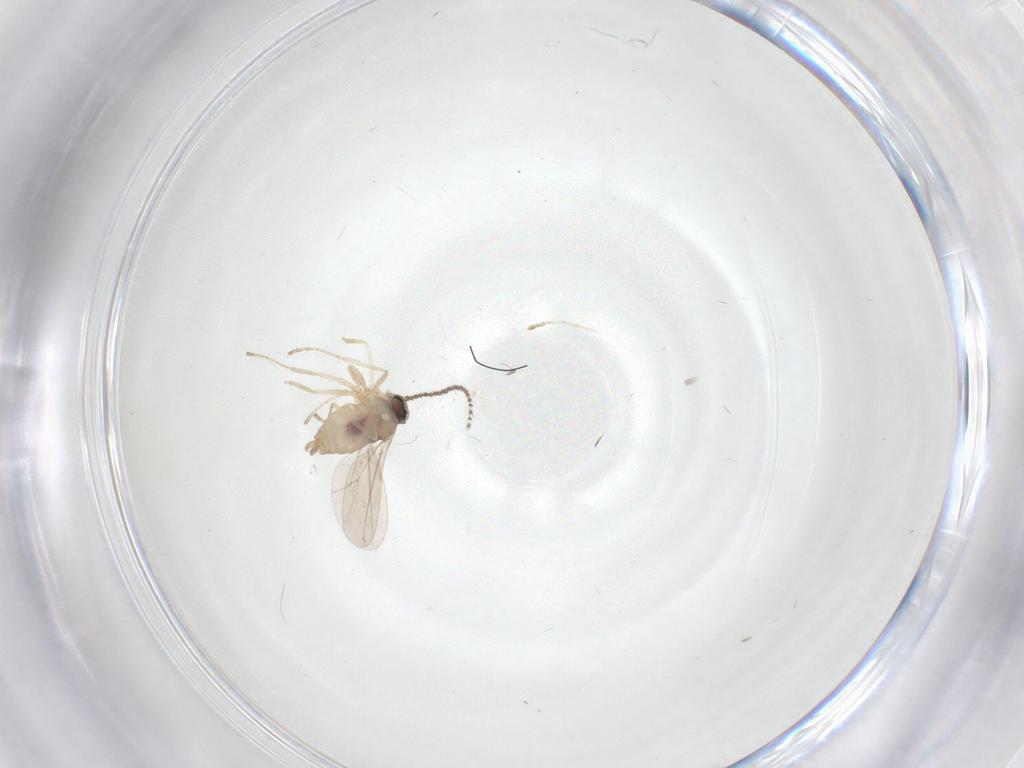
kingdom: Animalia
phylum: Arthropoda
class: Insecta
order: Diptera
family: Cecidomyiidae
